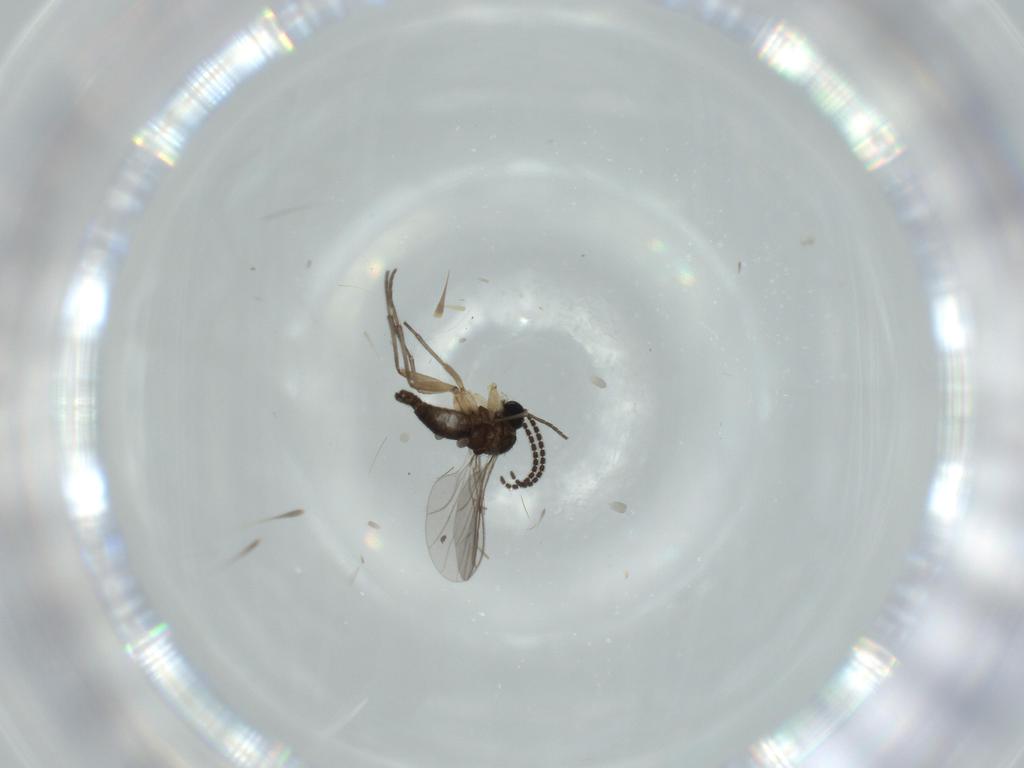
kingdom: Animalia
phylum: Arthropoda
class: Insecta
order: Diptera
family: Sciaridae
